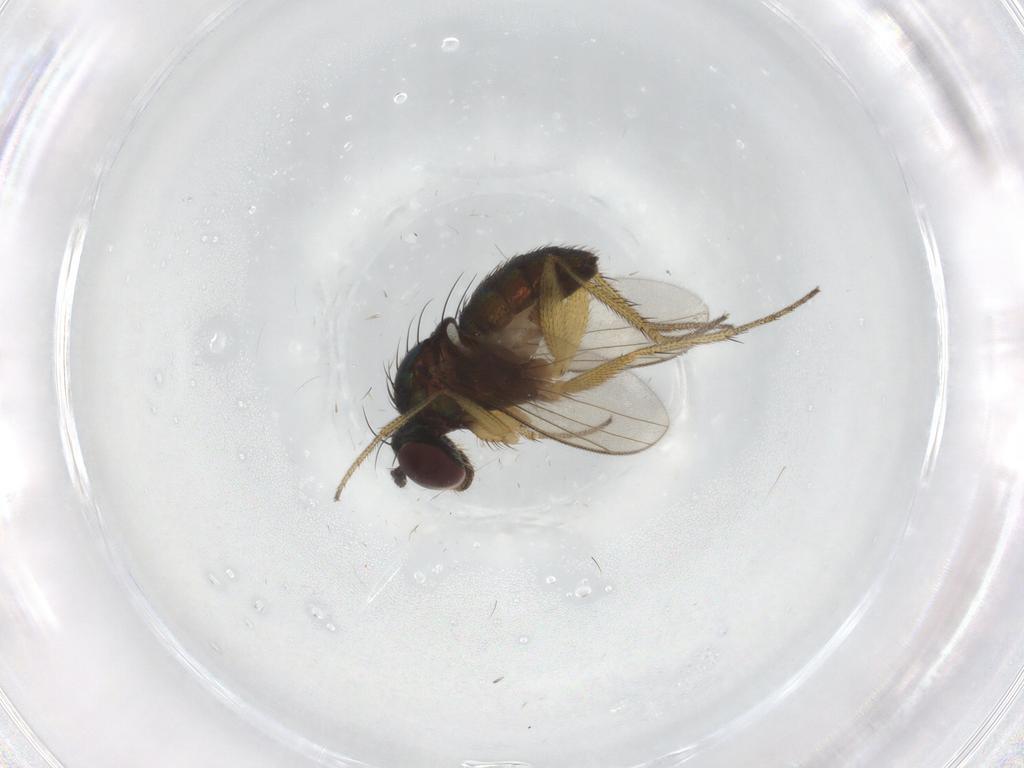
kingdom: Animalia
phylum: Arthropoda
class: Insecta
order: Diptera
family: Dolichopodidae
